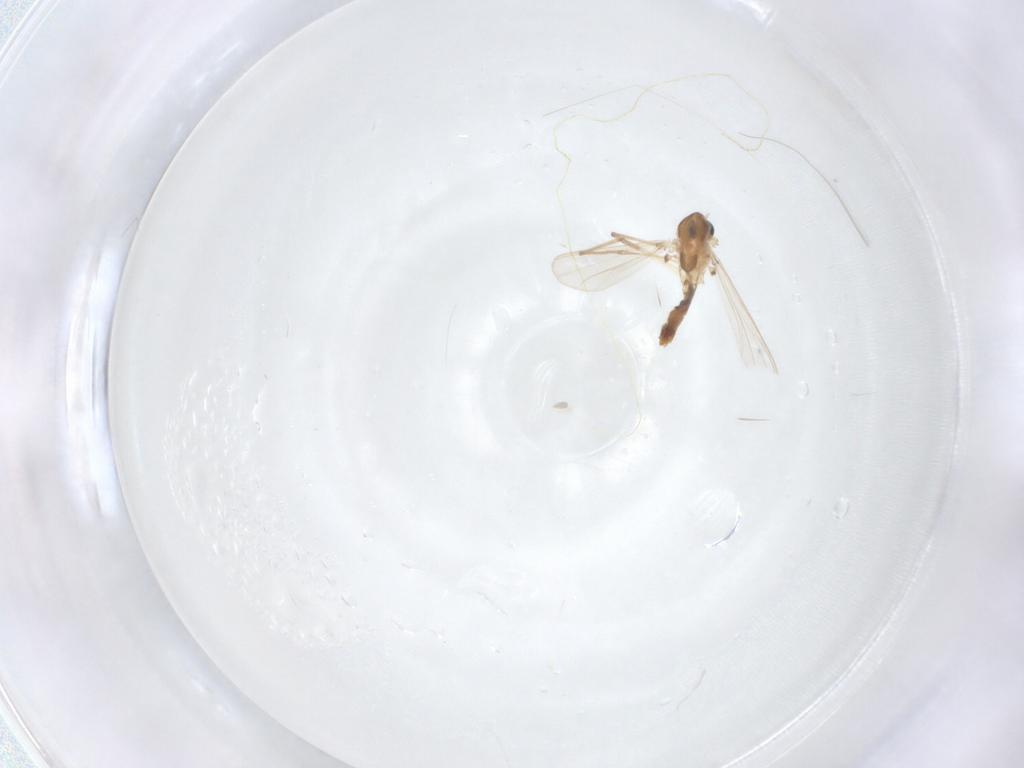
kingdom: Animalia
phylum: Arthropoda
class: Insecta
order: Diptera
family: Chironomidae
